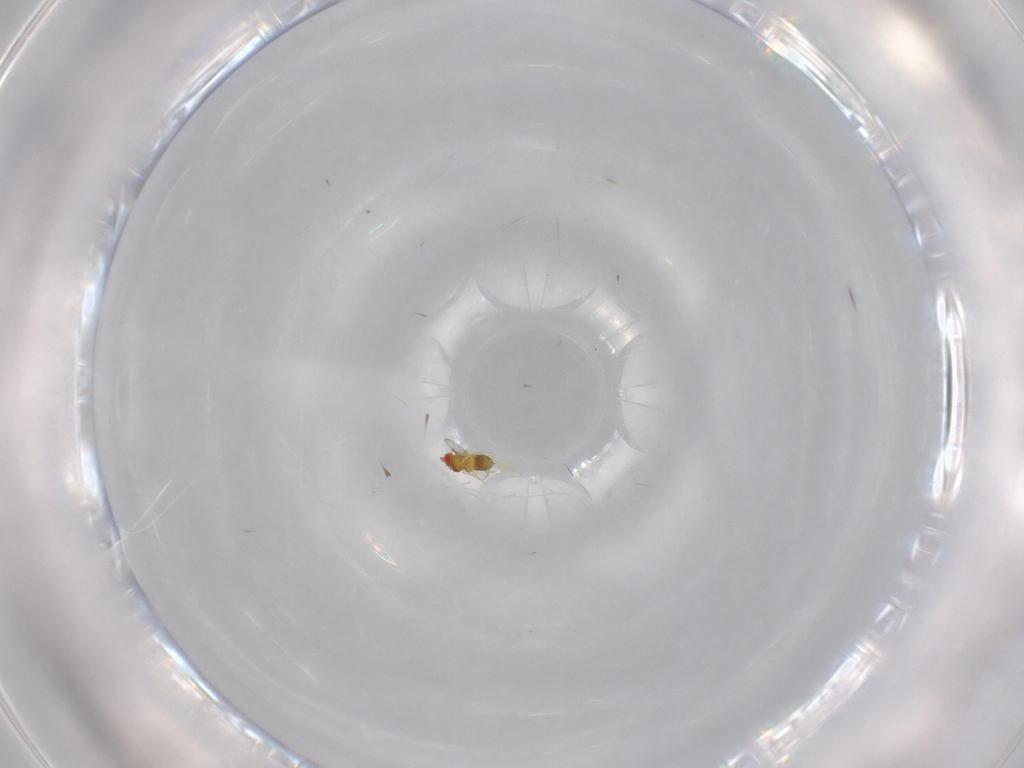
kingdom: Animalia
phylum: Arthropoda
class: Insecta
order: Hymenoptera
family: Trichogrammatidae
